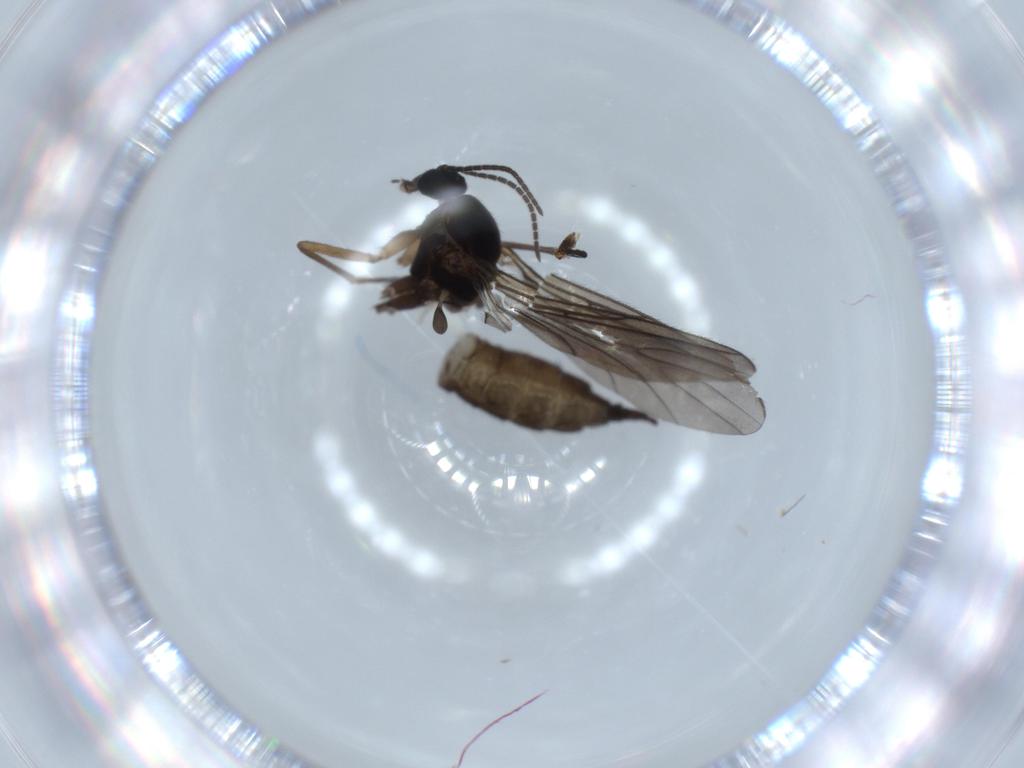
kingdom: Animalia
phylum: Arthropoda
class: Insecta
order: Diptera
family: Sciaridae
